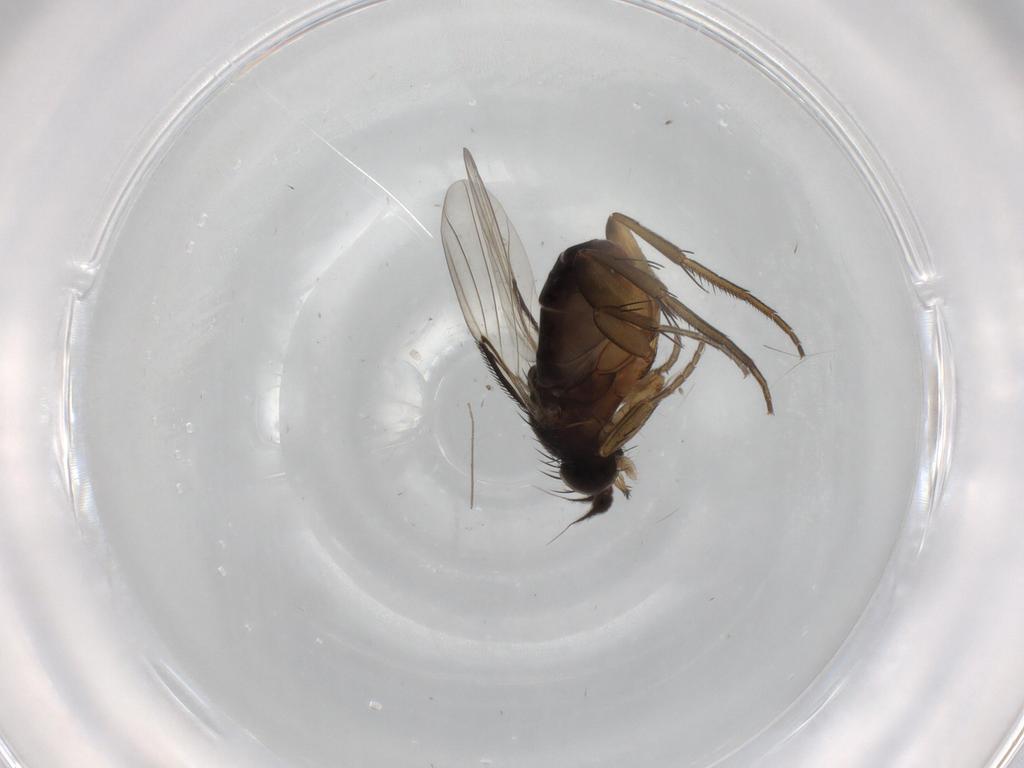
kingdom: Animalia
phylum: Arthropoda
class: Insecta
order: Diptera
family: Phoridae
